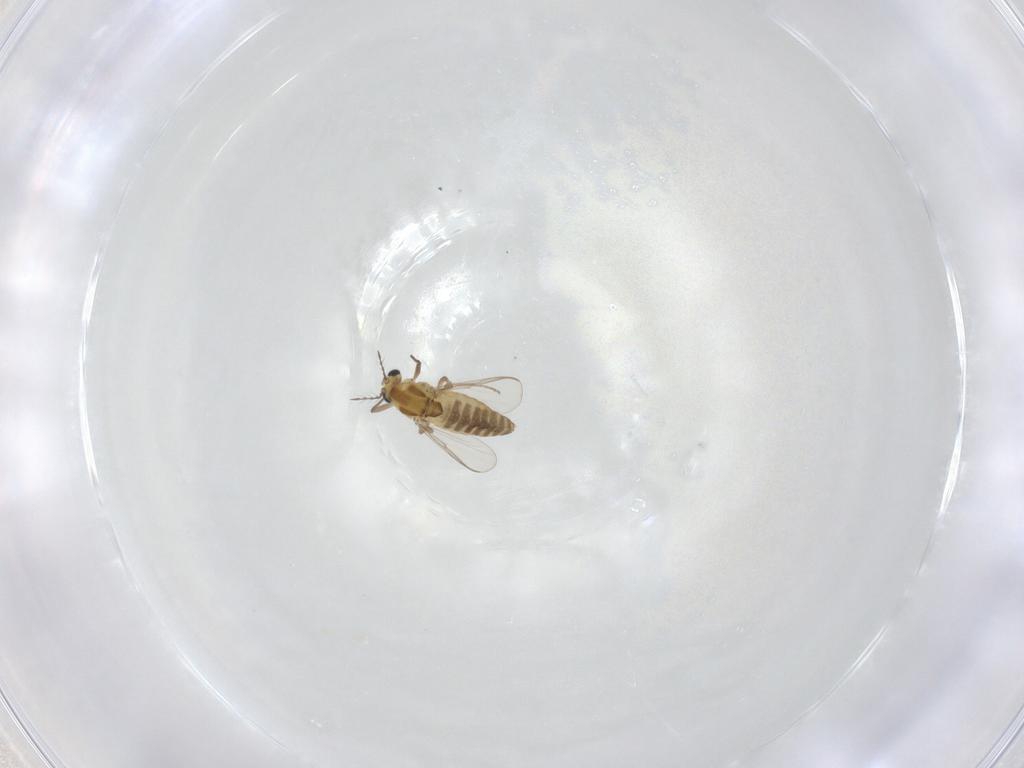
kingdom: Animalia
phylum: Arthropoda
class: Insecta
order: Diptera
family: Chironomidae
